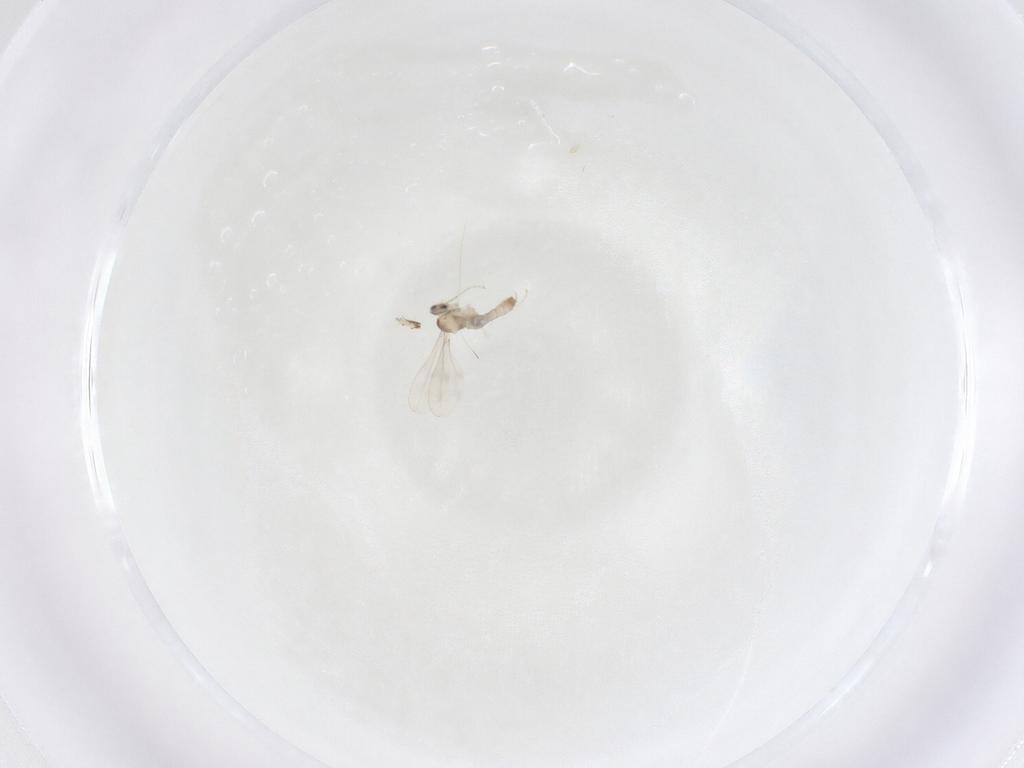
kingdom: Animalia
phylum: Arthropoda
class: Insecta
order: Diptera
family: Cecidomyiidae
